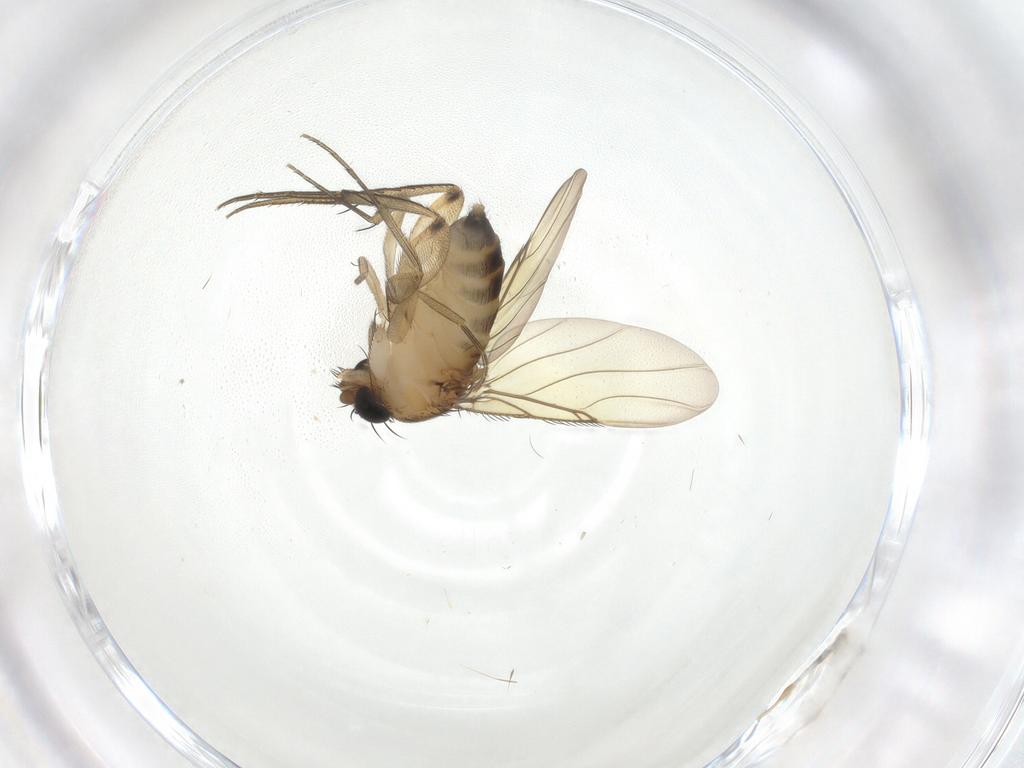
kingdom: Animalia
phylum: Arthropoda
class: Insecta
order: Diptera
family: Phoridae
